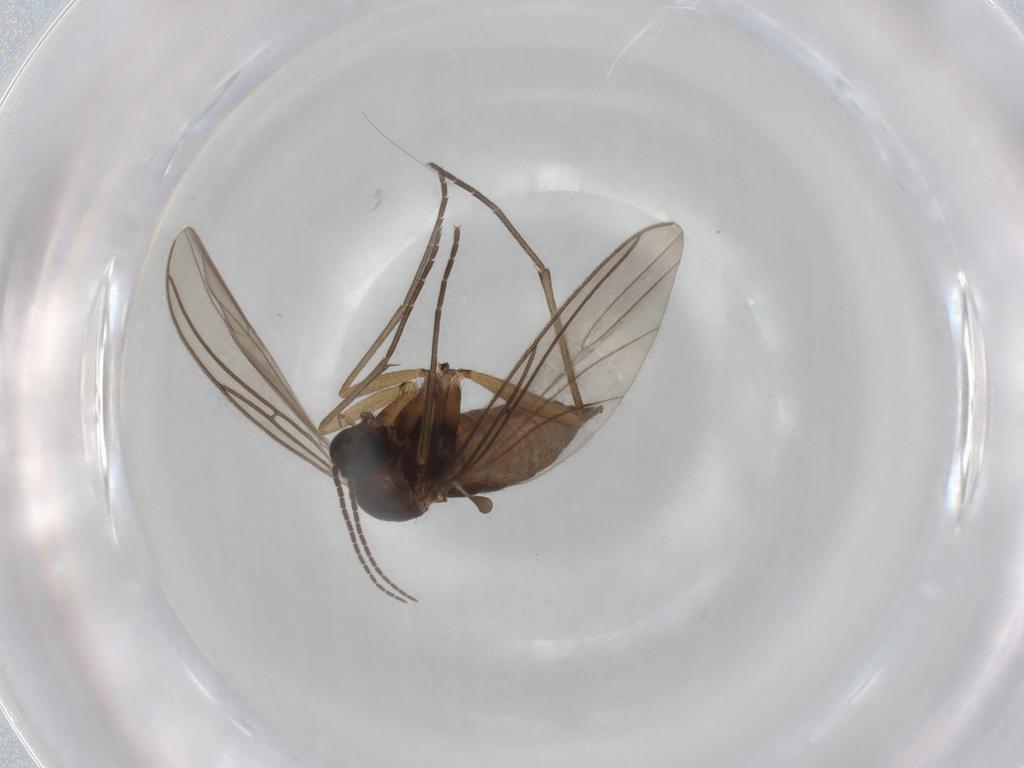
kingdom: Animalia
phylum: Arthropoda
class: Insecta
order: Diptera
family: Sciaridae
